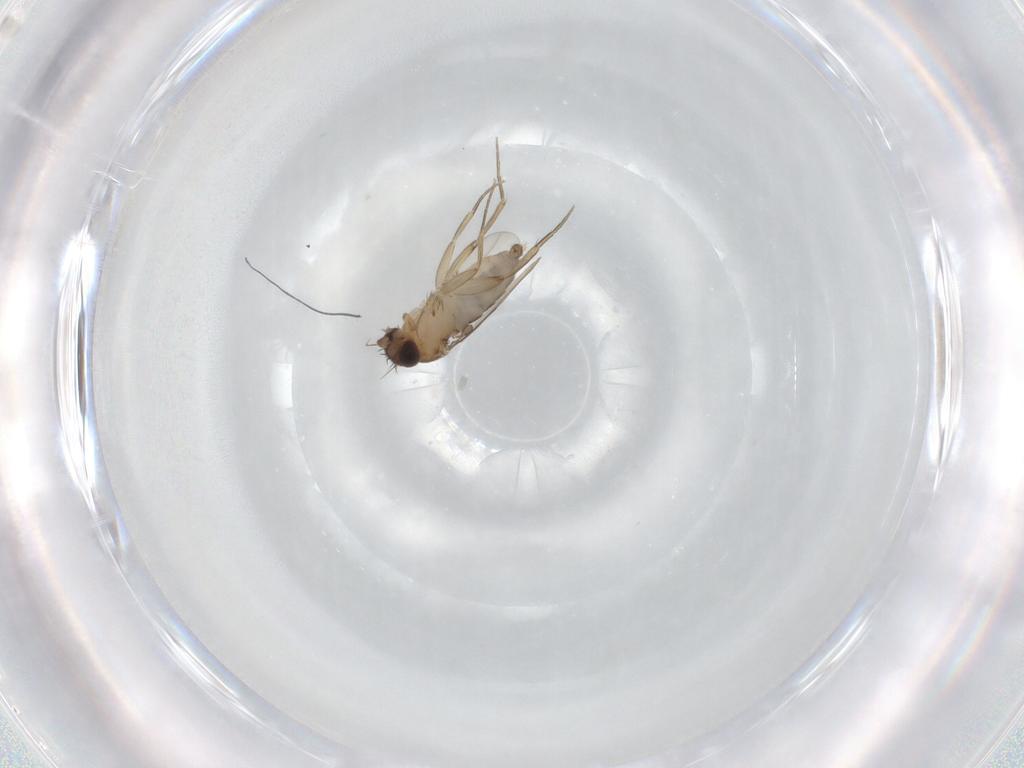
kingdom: Animalia
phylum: Arthropoda
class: Insecta
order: Diptera
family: Phoridae
